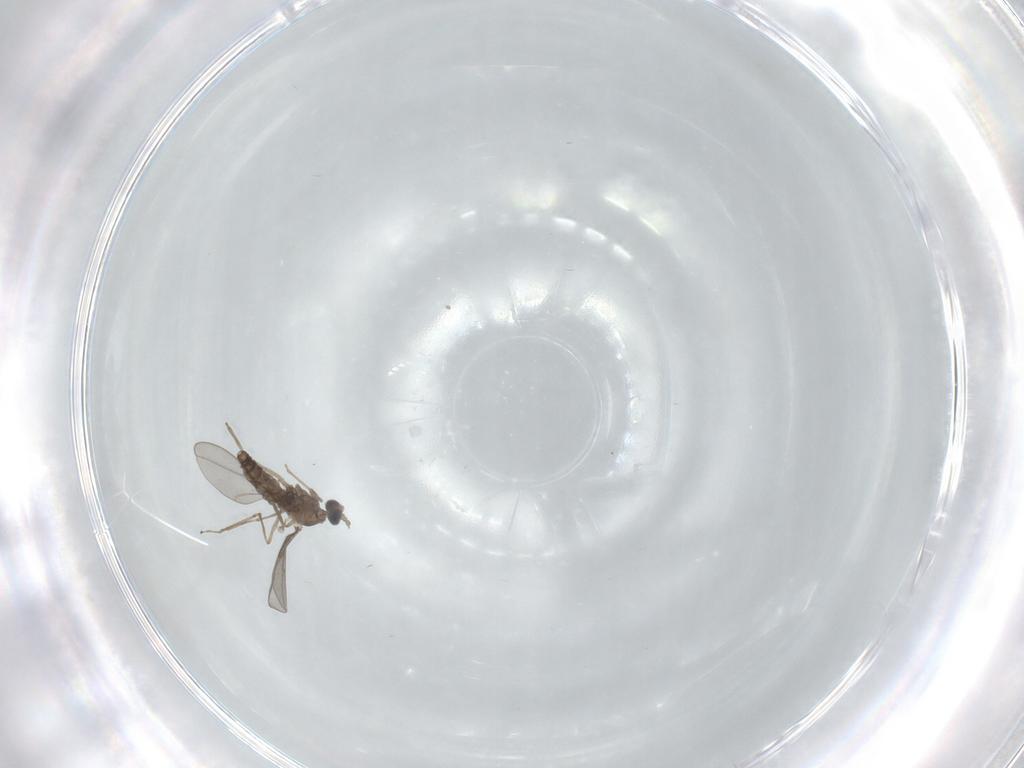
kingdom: Animalia
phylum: Arthropoda
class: Insecta
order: Diptera
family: Cecidomyiidae
